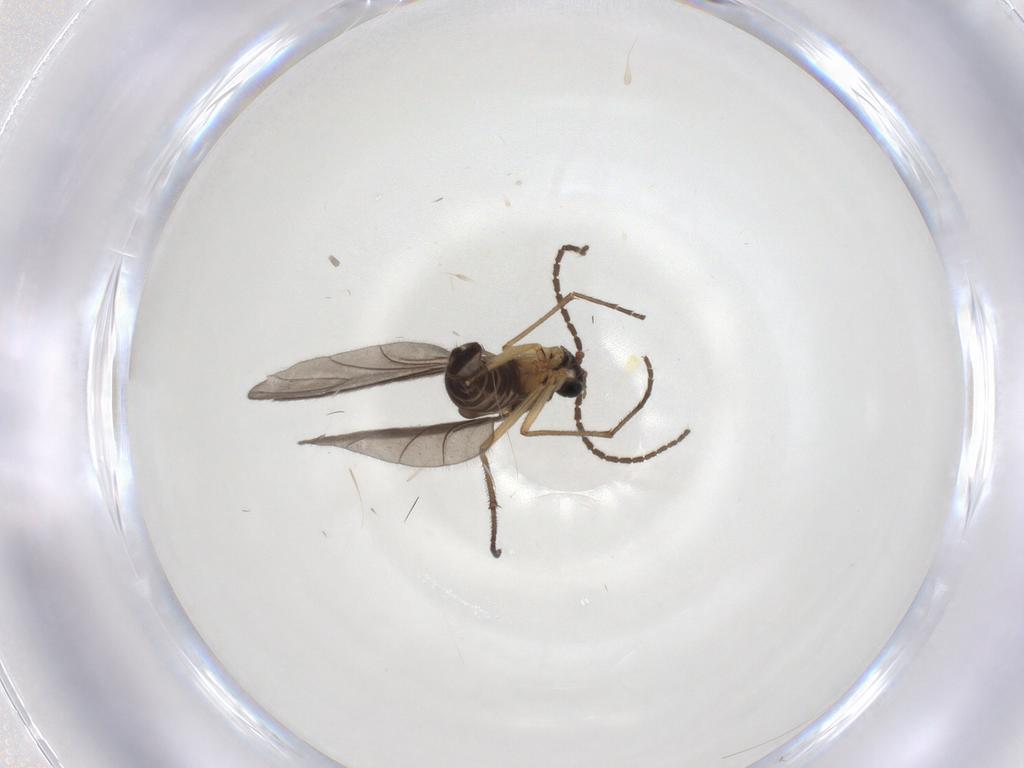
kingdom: Animalia
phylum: Arthropoda
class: Insecta
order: Diptera
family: Sciaridae
